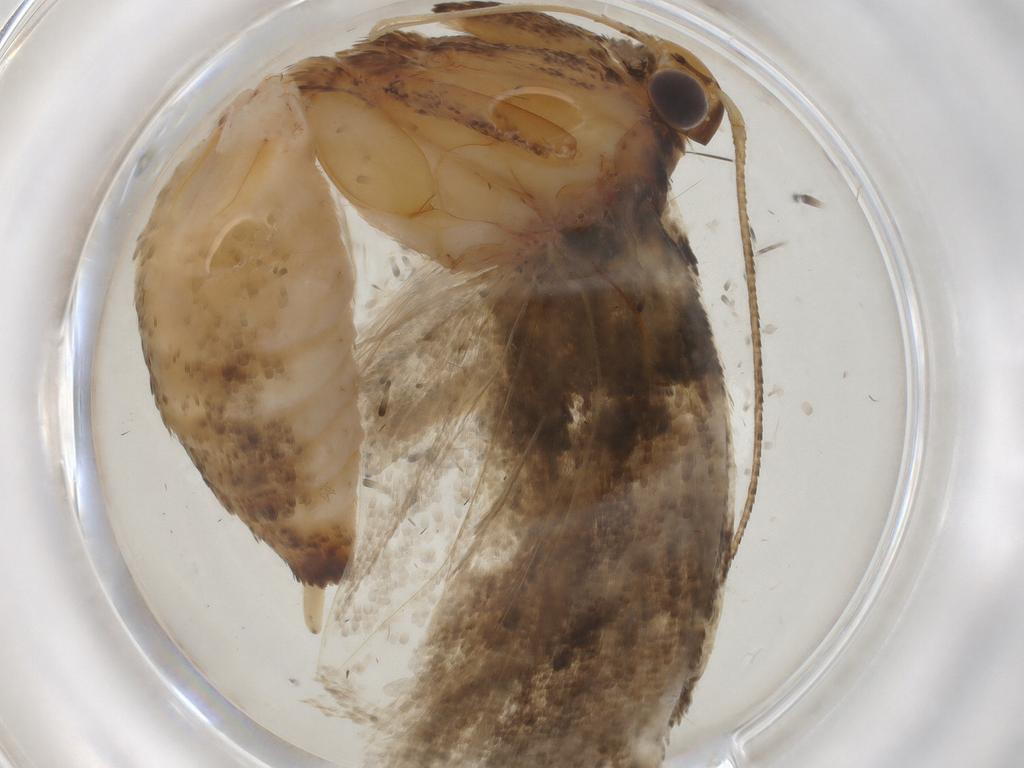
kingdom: Animalia
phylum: Arthropoda
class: Insecta
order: Lepidoptera
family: Gelechiidae
